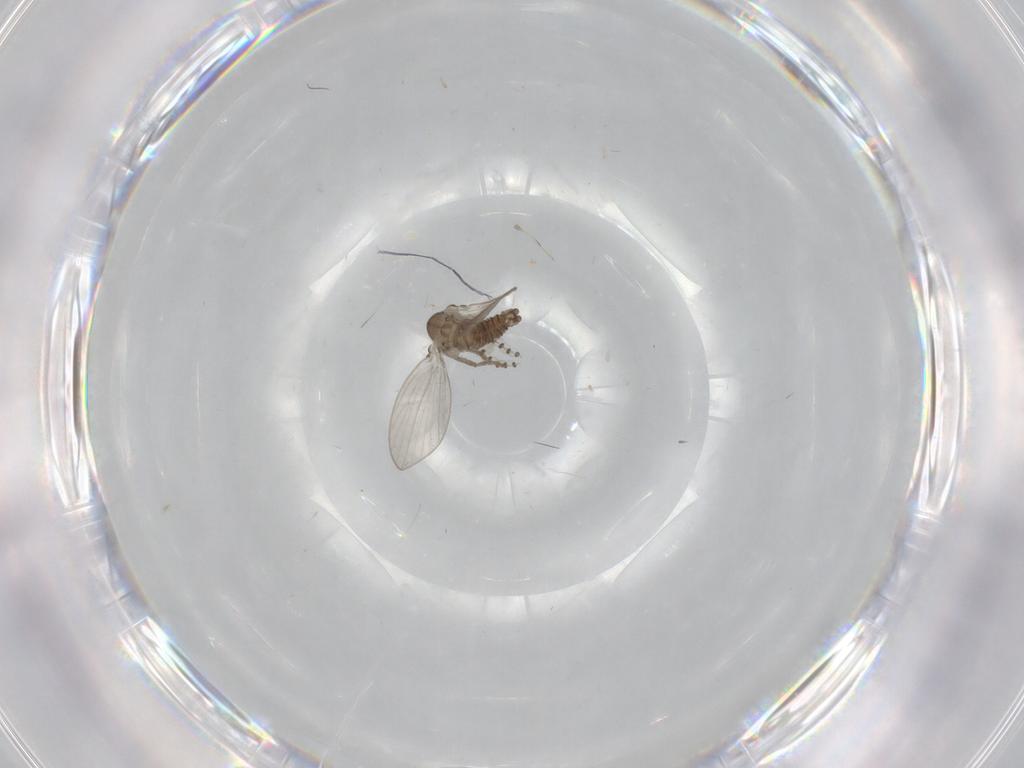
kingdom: Animalia
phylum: Arthropoda
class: Insecta
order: Diptera
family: Psychodidae
